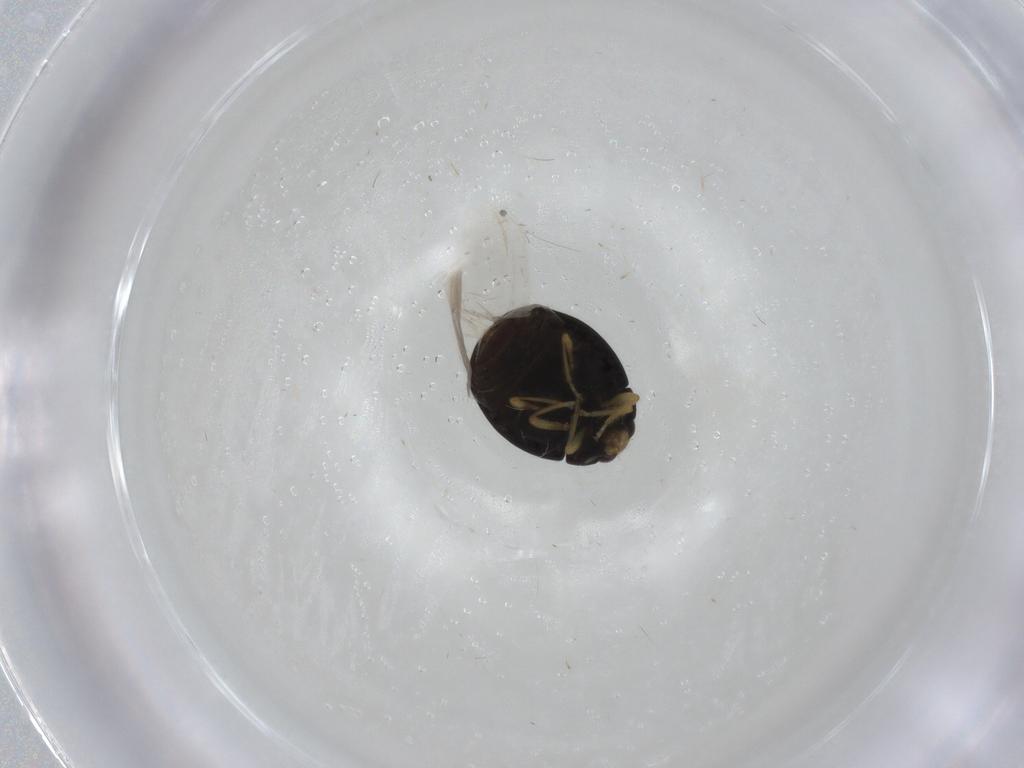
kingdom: Animalia
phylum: Arthropoda
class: Insecta
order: Coleoptera
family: Coccinellidae
